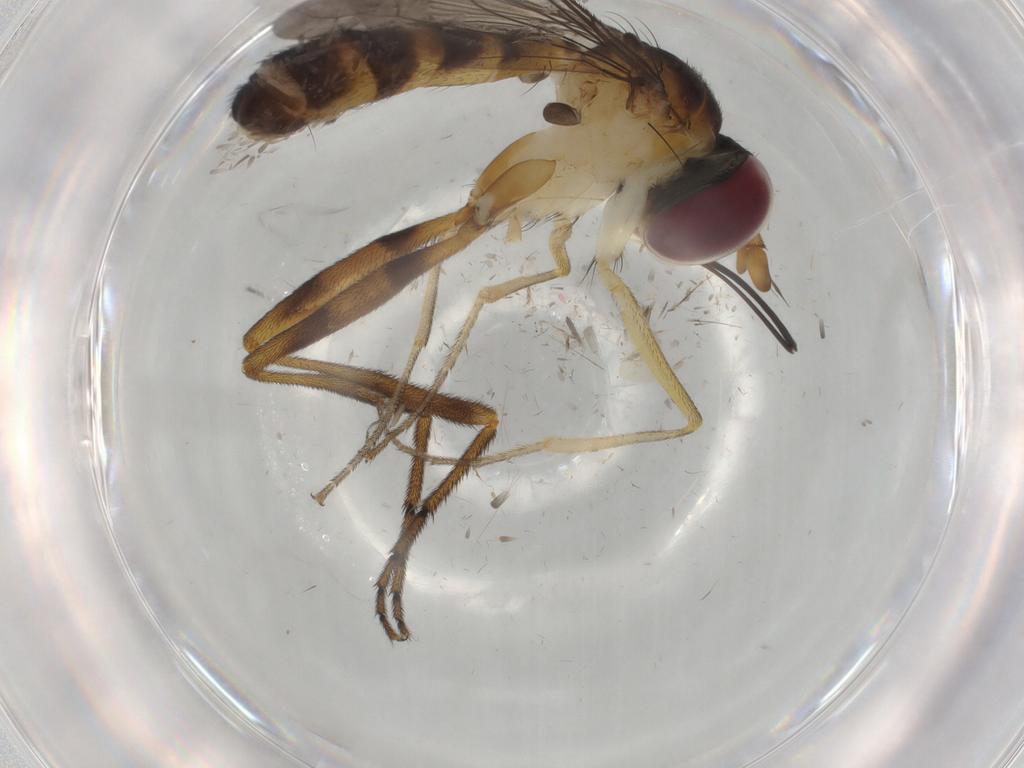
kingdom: Animalia
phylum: Arthropoda
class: Insecta
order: Diptera
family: Cecidomyiidae
